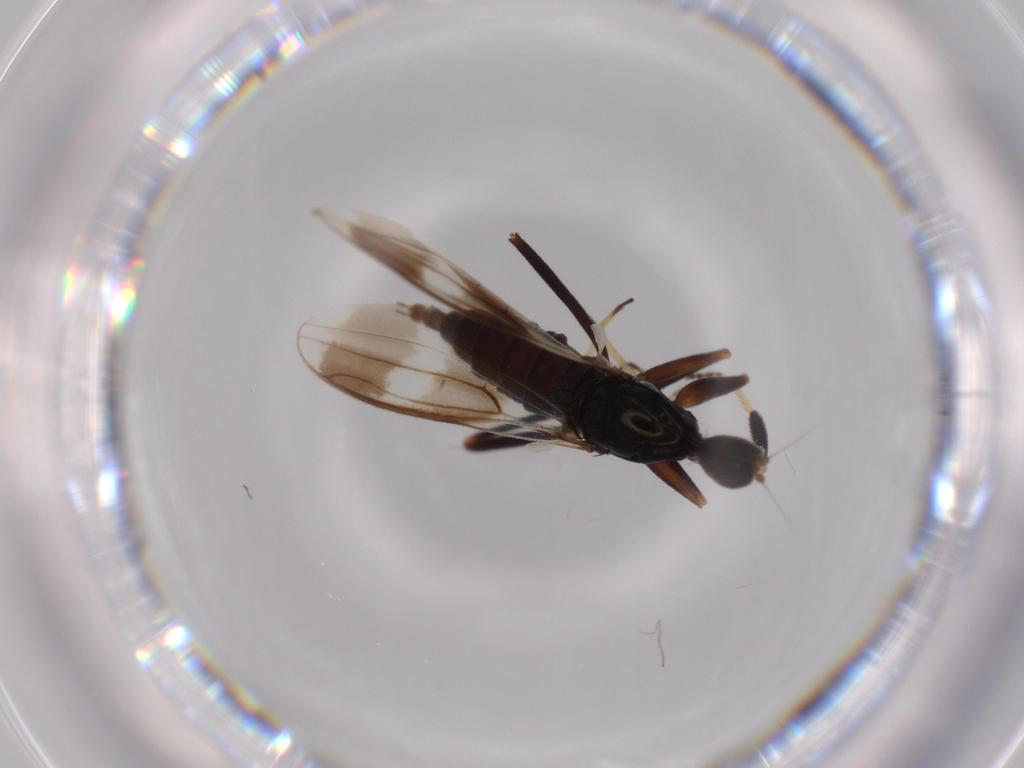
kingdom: Animalia
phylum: Arthropoda
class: Insecta
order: Diptera
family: Hybotidae
